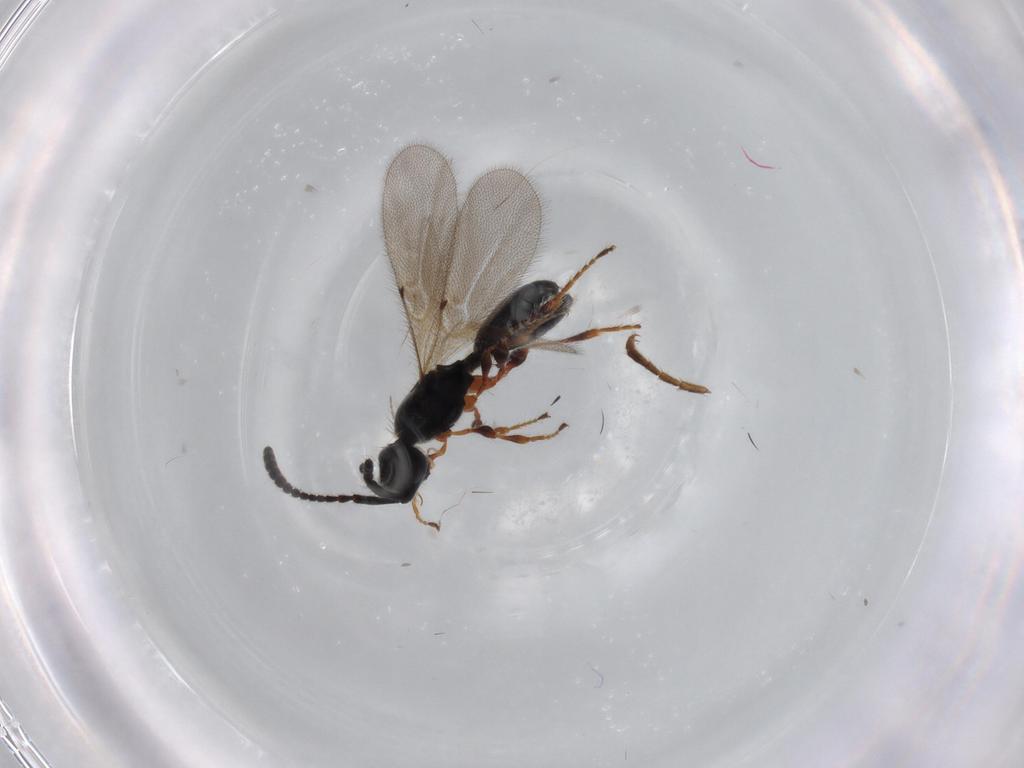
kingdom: Animalia
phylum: Arthropoda
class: Insecta
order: Hymenoptera
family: Diapriidae
